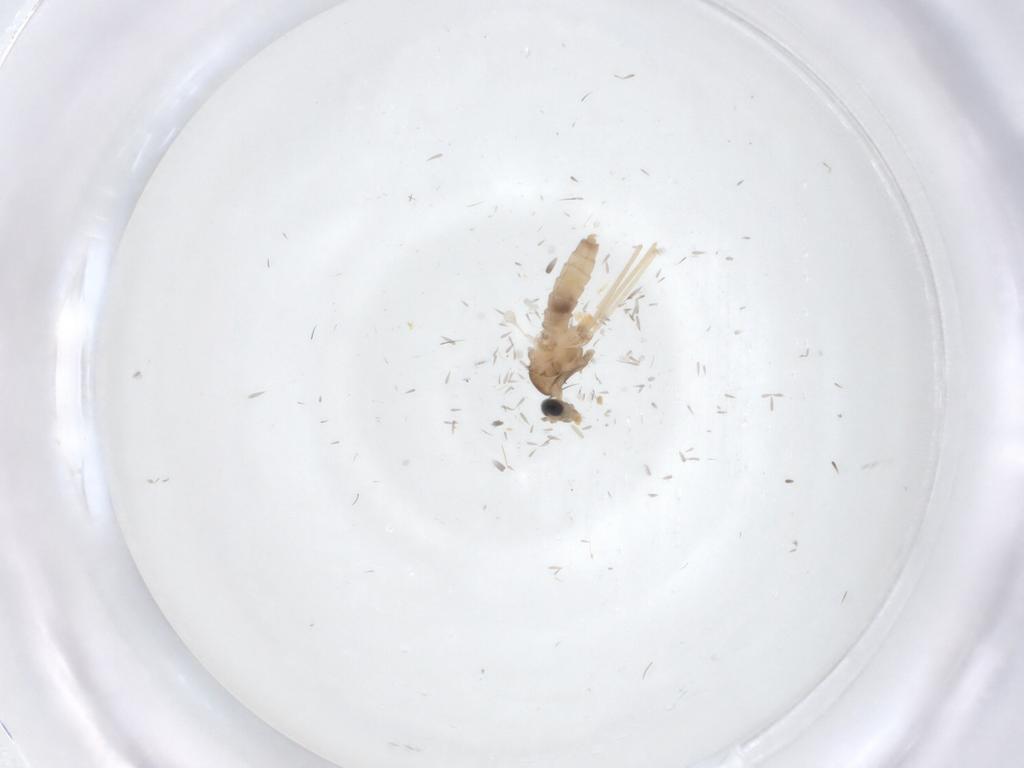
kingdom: Animalia
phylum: Arthropoda
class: Insecta
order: Diptera
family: Cecidomyiidae
